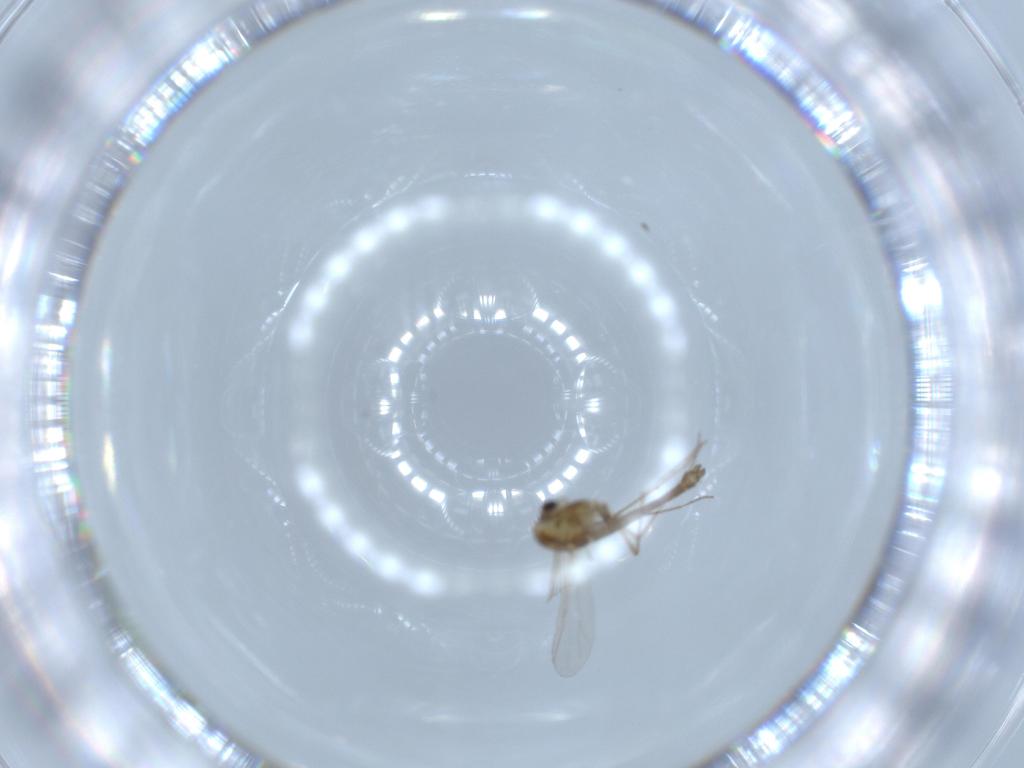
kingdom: Animalia
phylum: Arthropoda
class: Insecta
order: Diptera
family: Chironomidae
